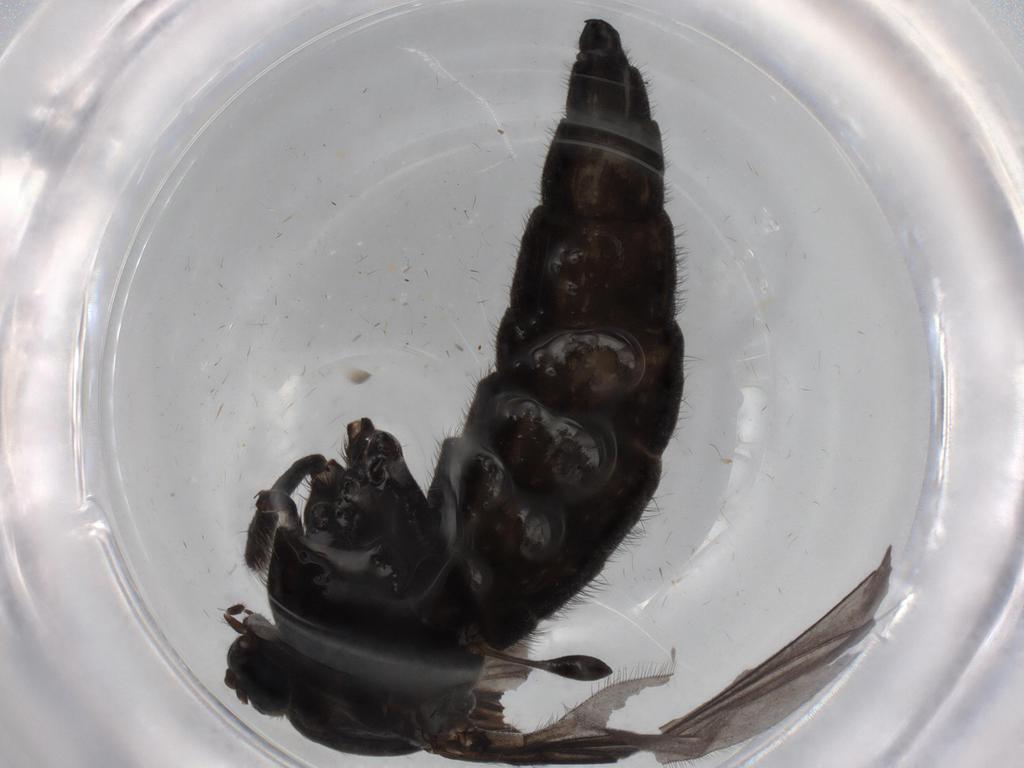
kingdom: Animalia
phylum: Arthropoda
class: Insecta
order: Diptera
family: Sciaridae
